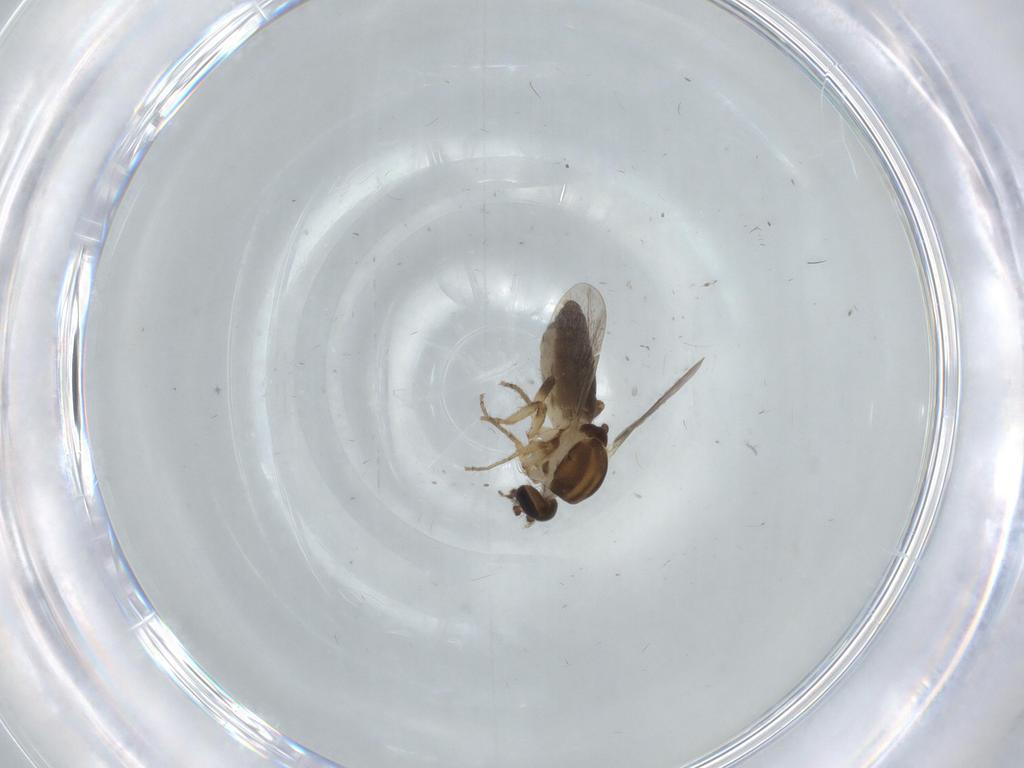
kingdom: Animalia
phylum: Arthropoda
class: Insecta
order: Diptera
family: Ceratopogonidae
